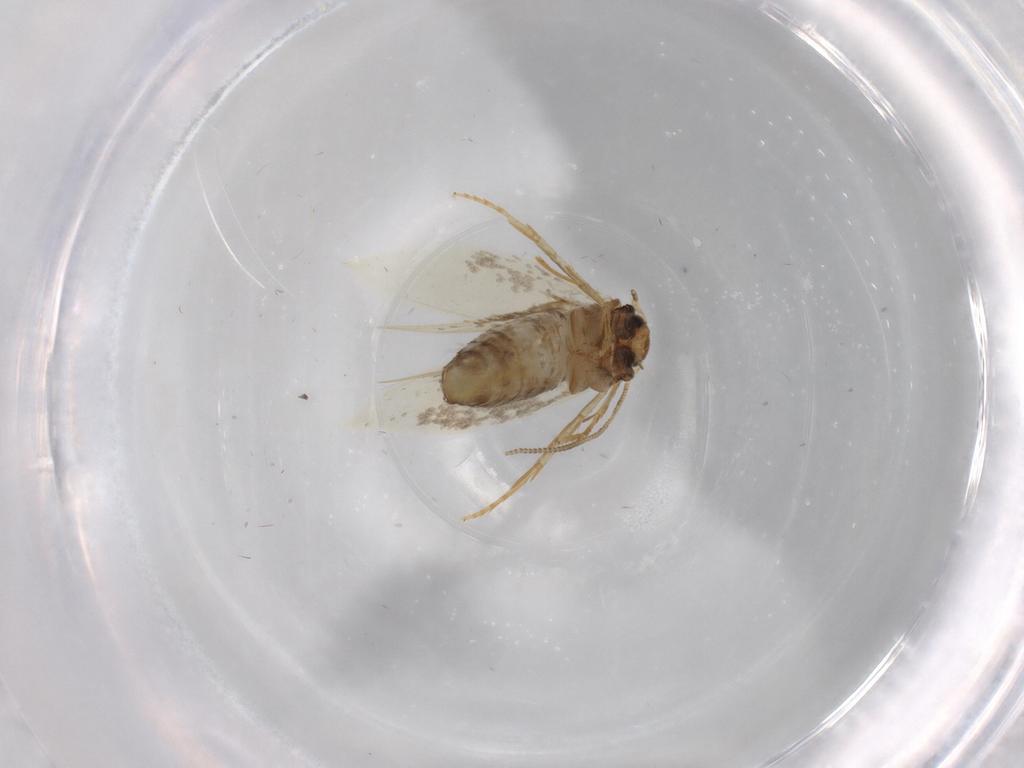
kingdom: Animalia
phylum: Arthropoda
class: Insecta
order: Lepidoptera
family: Nepticulidae
